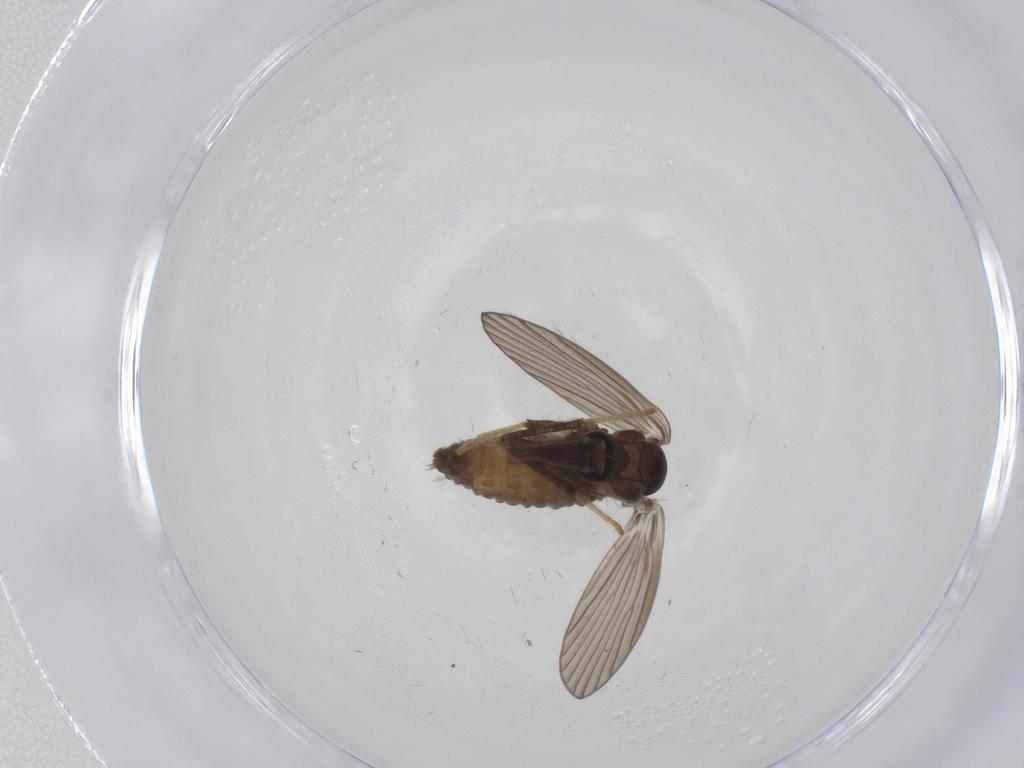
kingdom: Animalia
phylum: Arthropoda
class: Insecta
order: Diptera
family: Psychodidae
